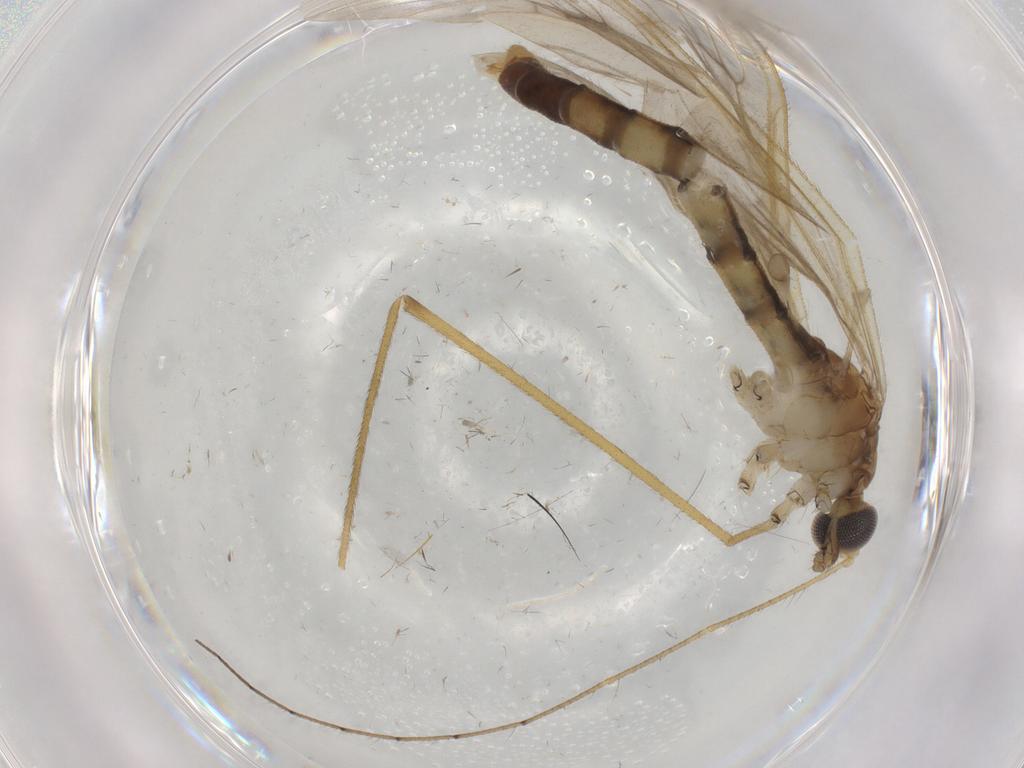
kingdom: Animalia
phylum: Arthropoda
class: Insecta
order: Diptera
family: Limoniidae
